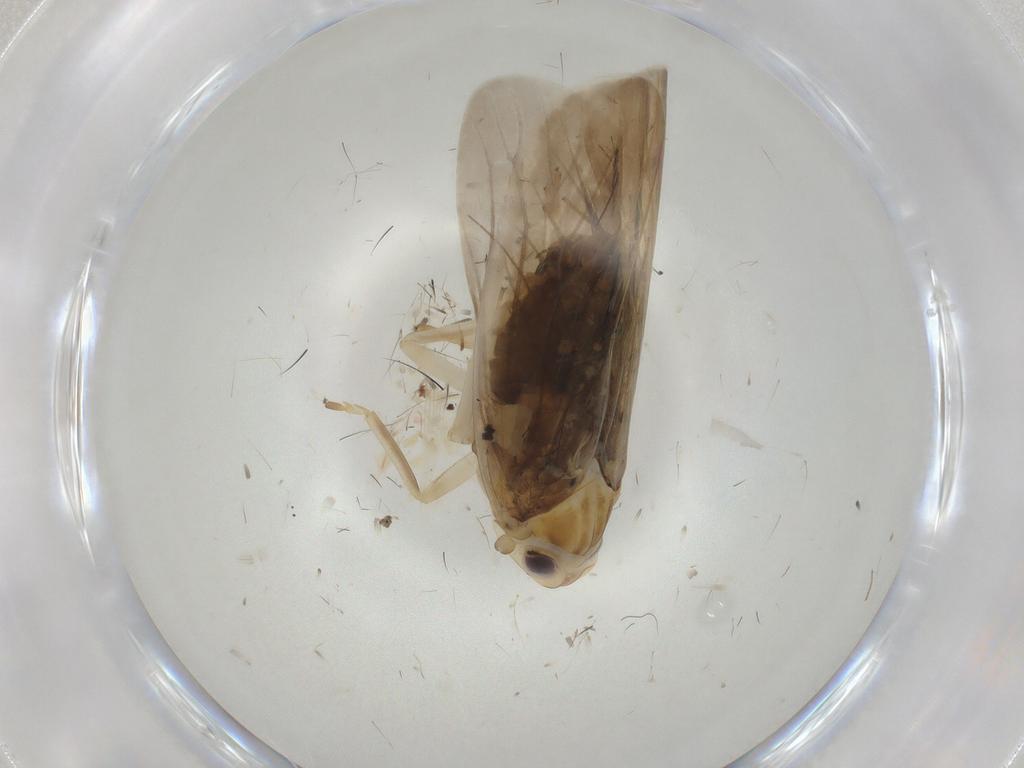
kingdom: Animalia
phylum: Arthropoda
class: Insecta
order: Hemiptera
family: Achilidae
